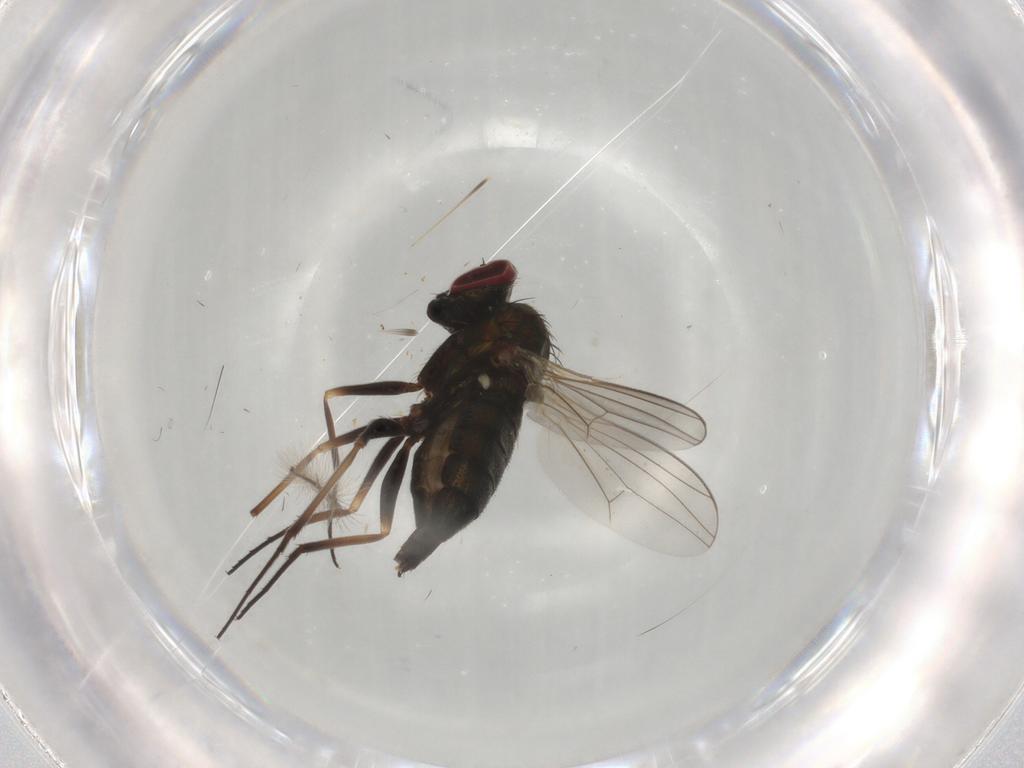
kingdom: Animalia
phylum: Arthropoda
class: Insecta
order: Diptera
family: Dolichopodidae
